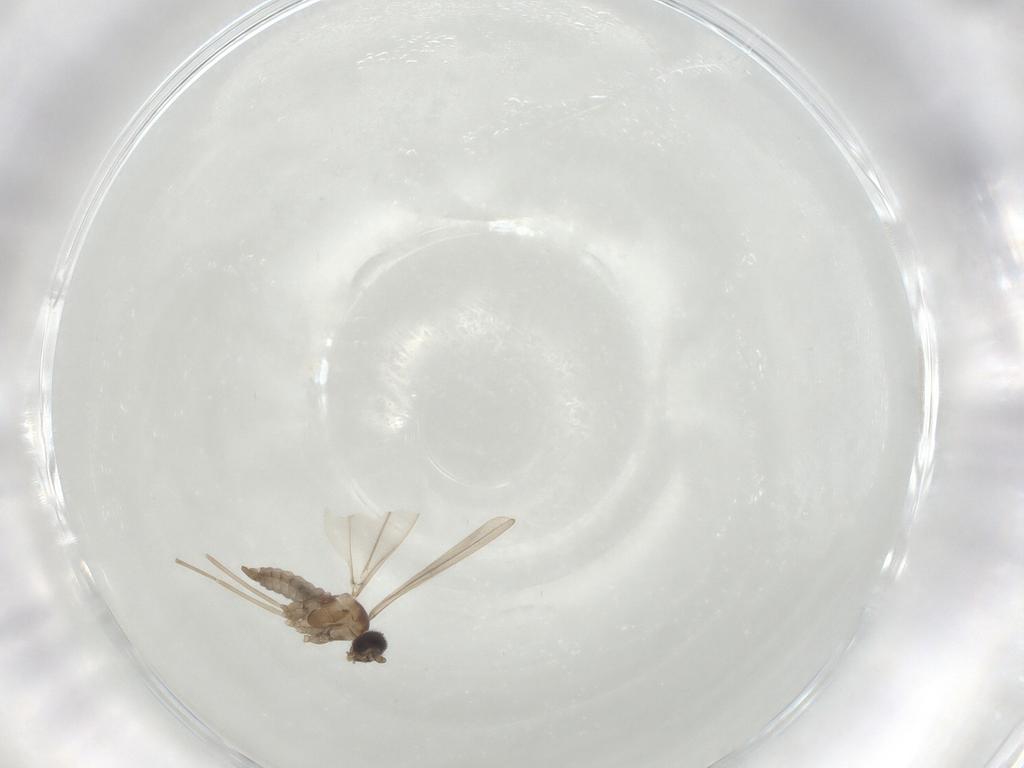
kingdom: Animalia
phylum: Arthropoda
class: Insecta
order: Diptera
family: Cecidomyiidae
